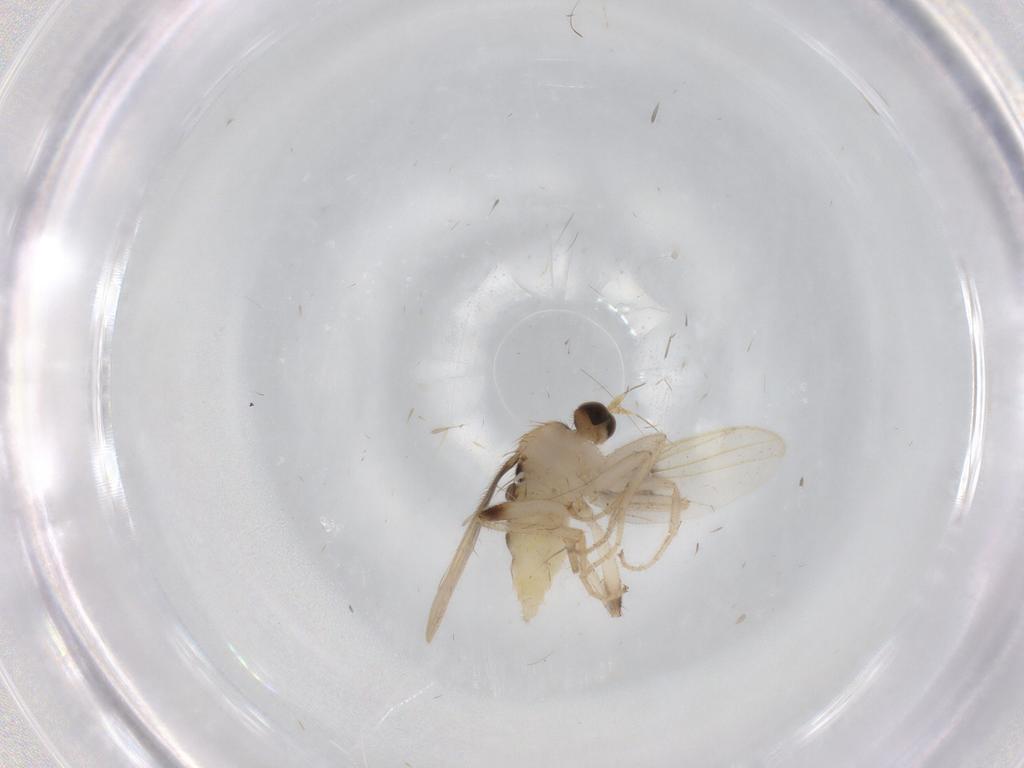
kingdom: Animalia
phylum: Arthropoda
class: Insecta
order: Diptera
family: Hybotidae
